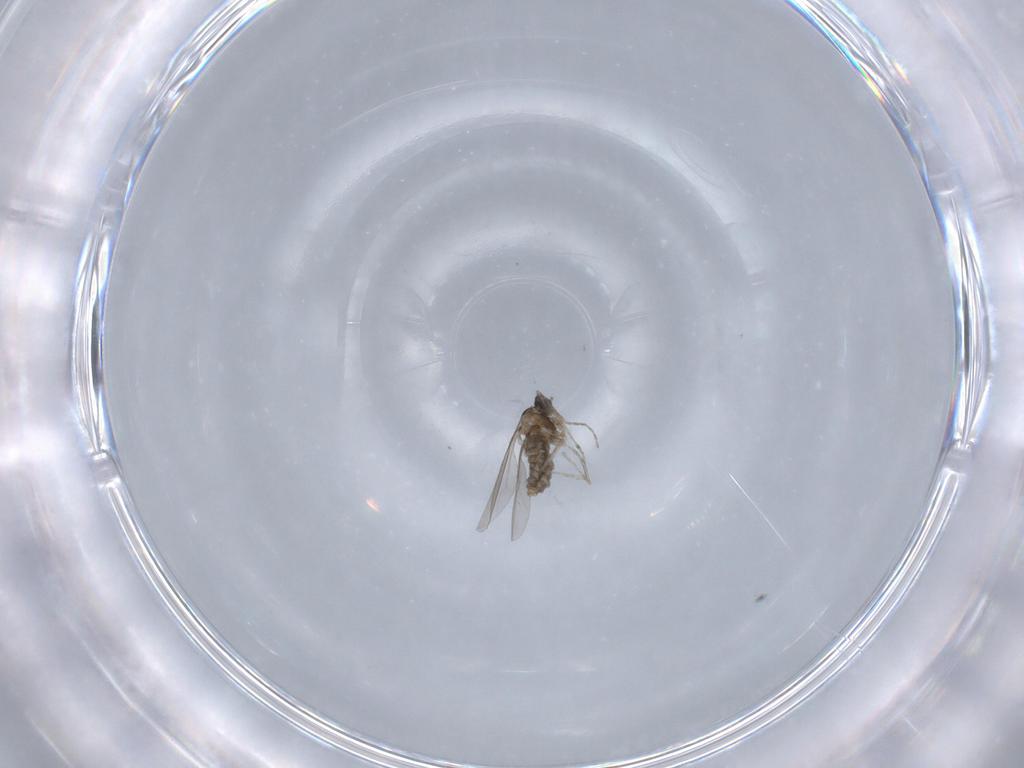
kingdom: Animalia
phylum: Arthropoda
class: Insecta
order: Diptera
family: Cecidomyiidae
